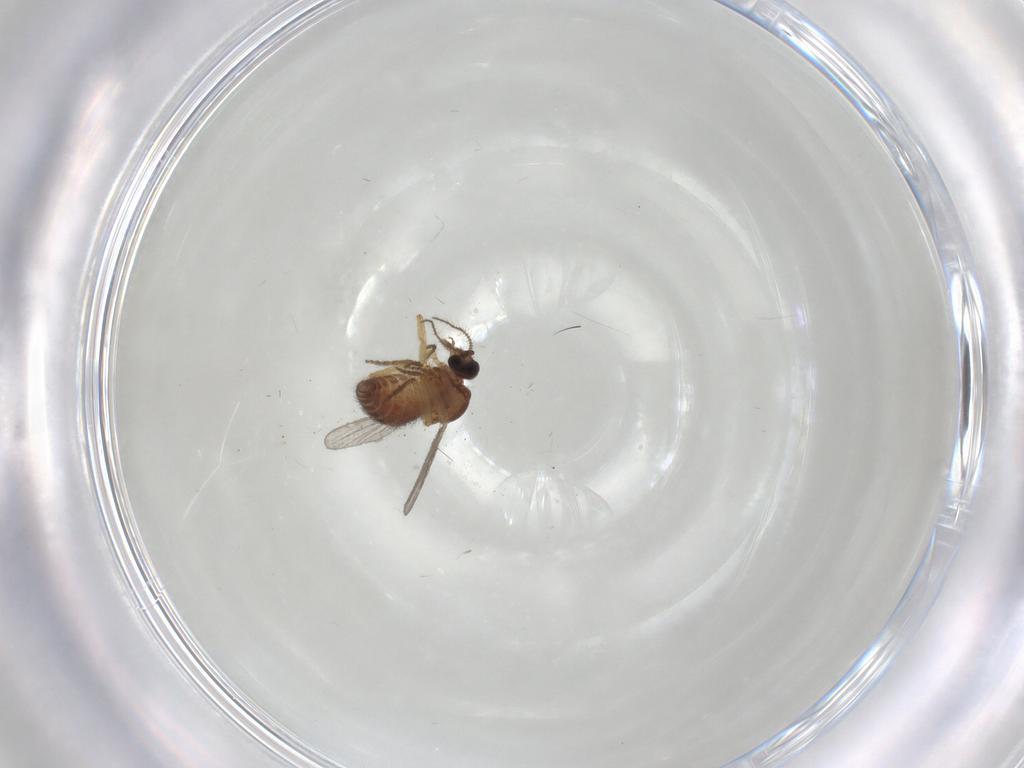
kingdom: Animalia
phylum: Arthropoda
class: Insecta
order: Diptera
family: Ceratopogonidae
